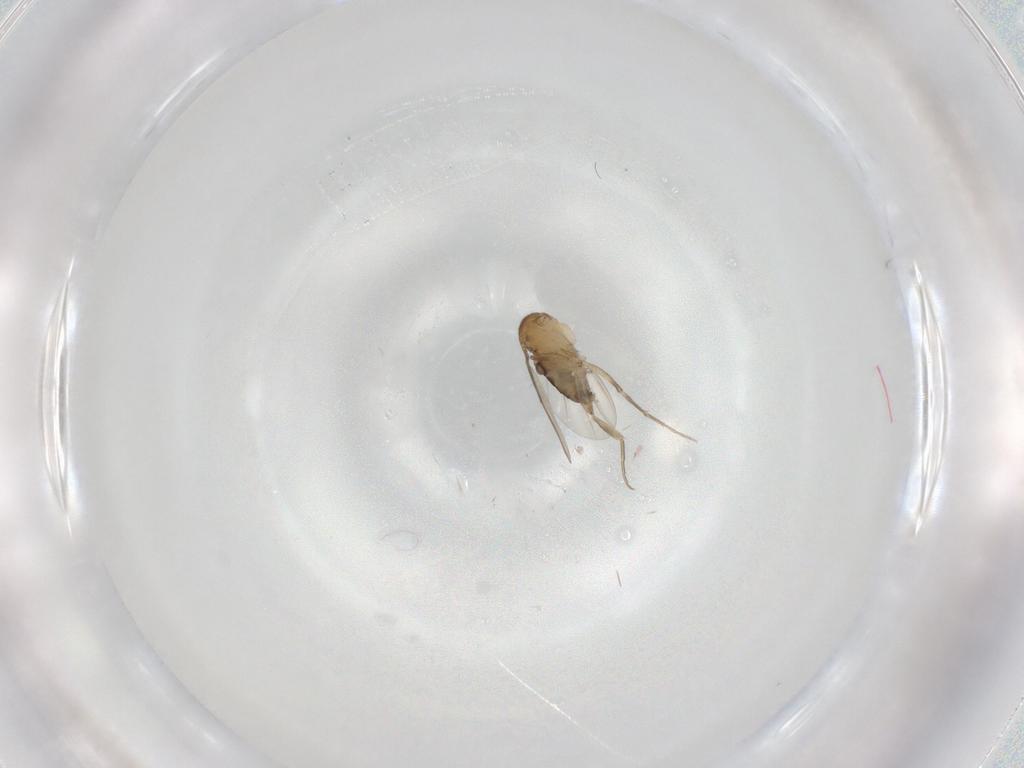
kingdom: Animalia
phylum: Arthropoda
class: Insecta
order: Diptera
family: Phoridae
